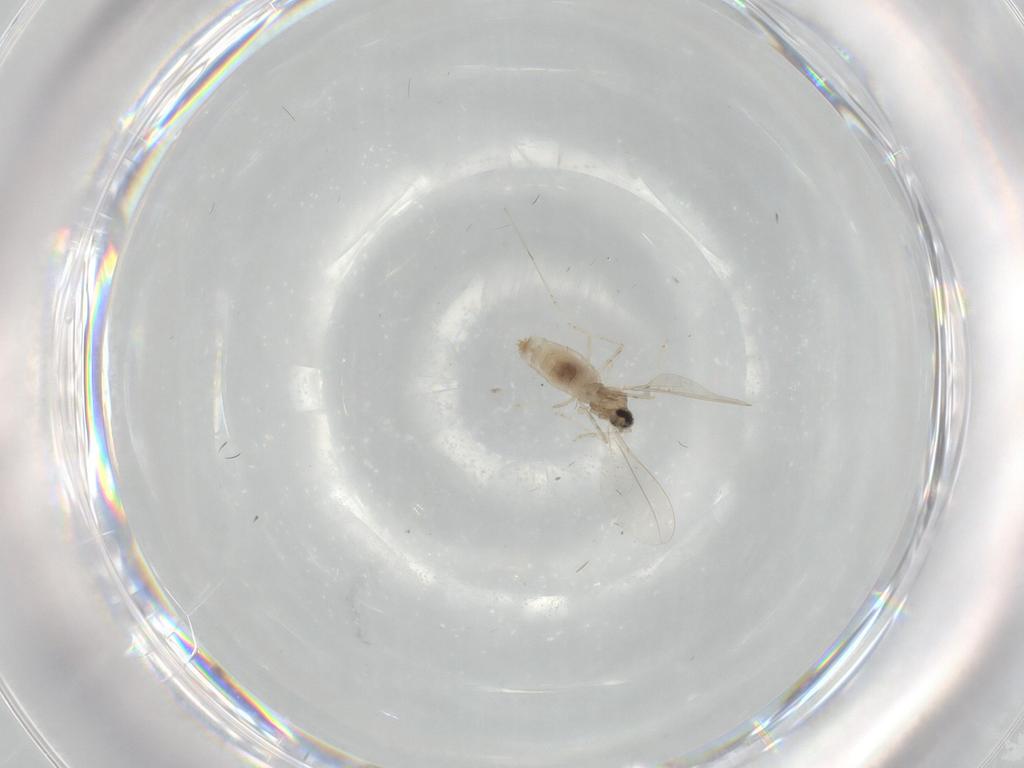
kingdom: Animalia
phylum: Arthropoda
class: Insecta
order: Diptera
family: Cecidomyiidae
